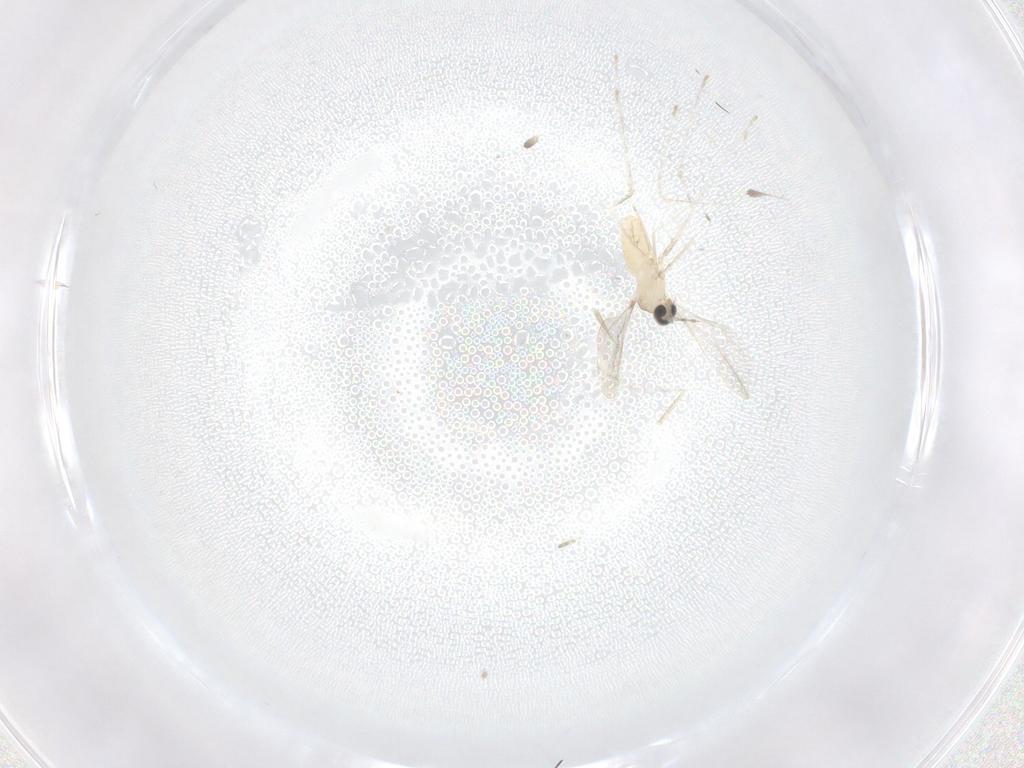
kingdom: Animalia
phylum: Arthropoda
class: Insecta
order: Diptera
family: Cecidomyiidae
